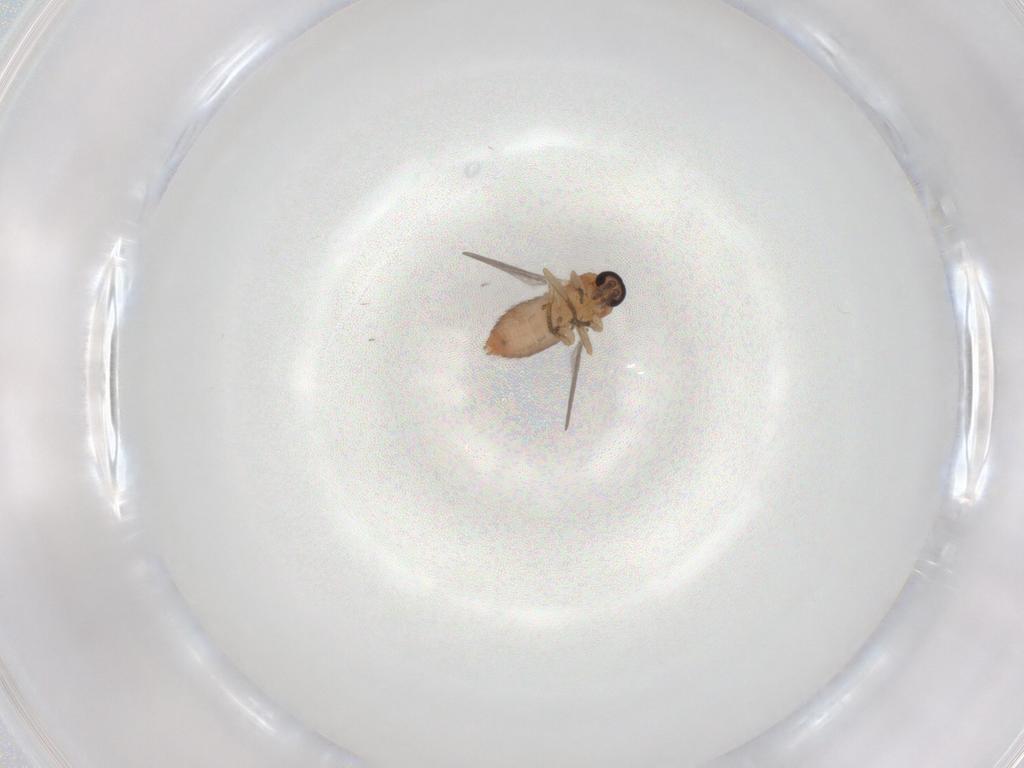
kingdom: Animalia
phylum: Arthropoda
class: Insecta
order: Diptera
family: Ceratopogonidae
